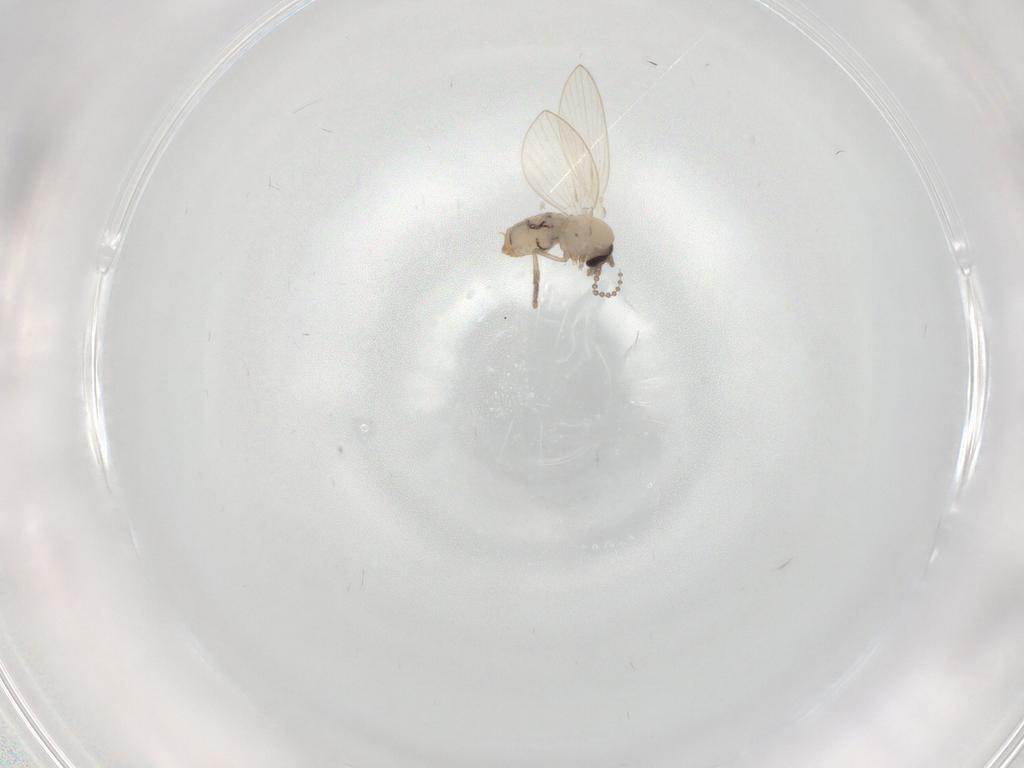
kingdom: Animalia
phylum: Arthropoda
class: Insecta
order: Diptera
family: Psychodidae
